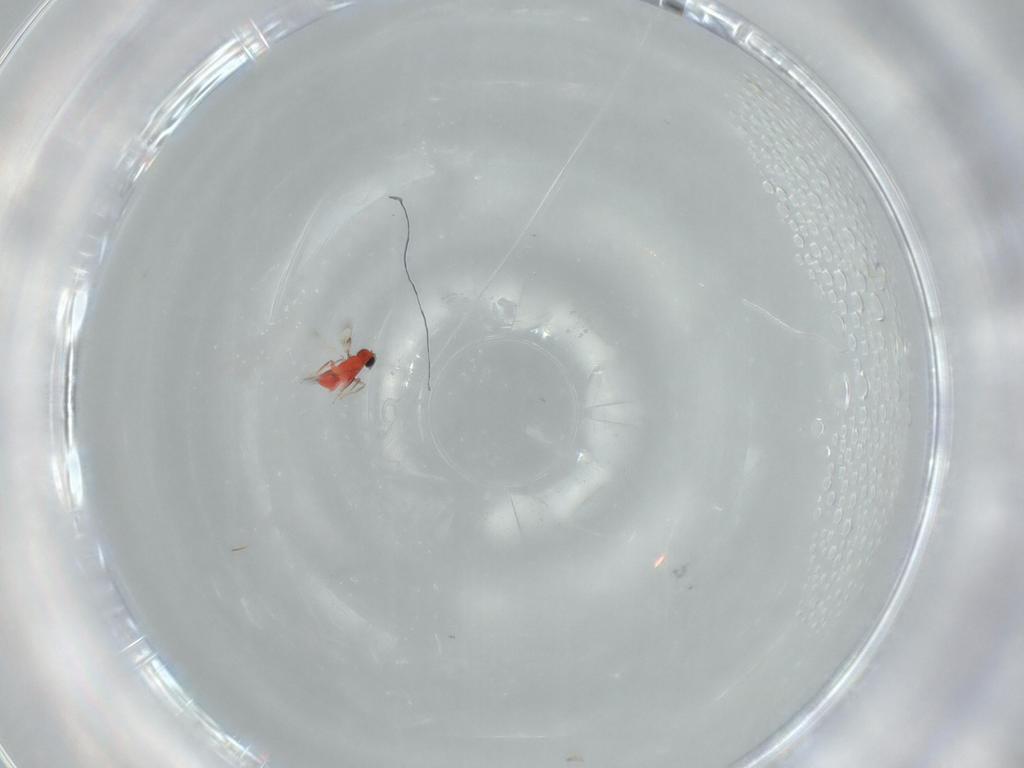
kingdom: Animalia
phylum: Arthropoda
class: Insecta
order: Hymenoptera
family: Trichogrammatidae
